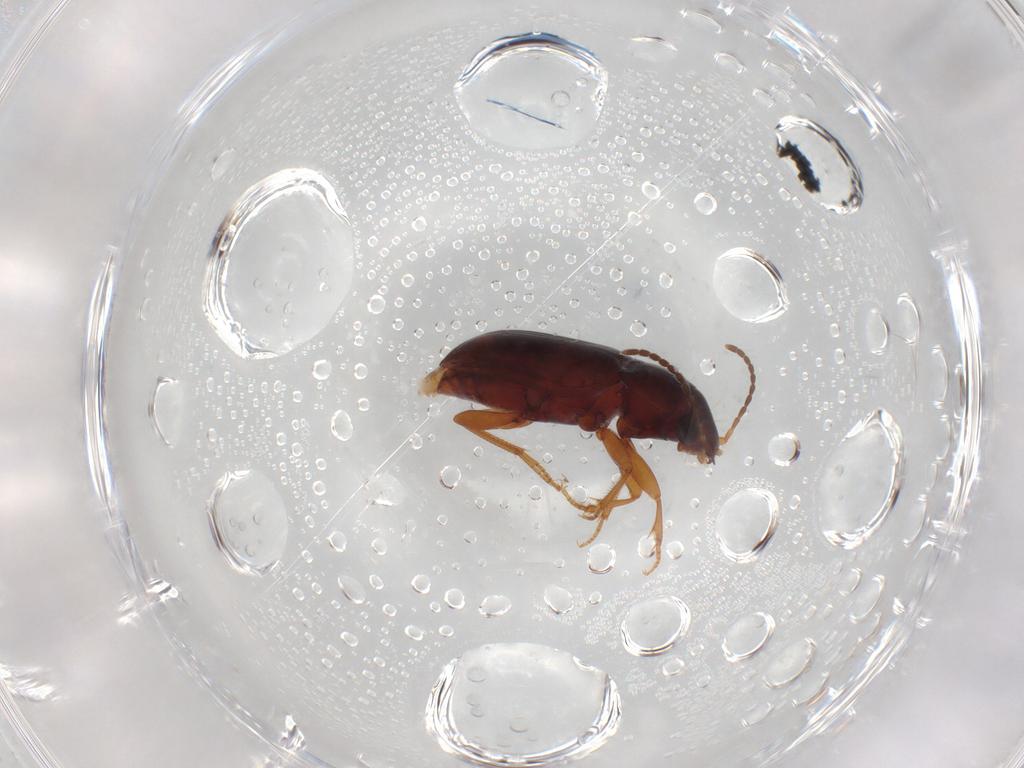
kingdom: Animalia
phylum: Arthropoda
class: Insecta
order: Coleoptera
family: Carabidae
